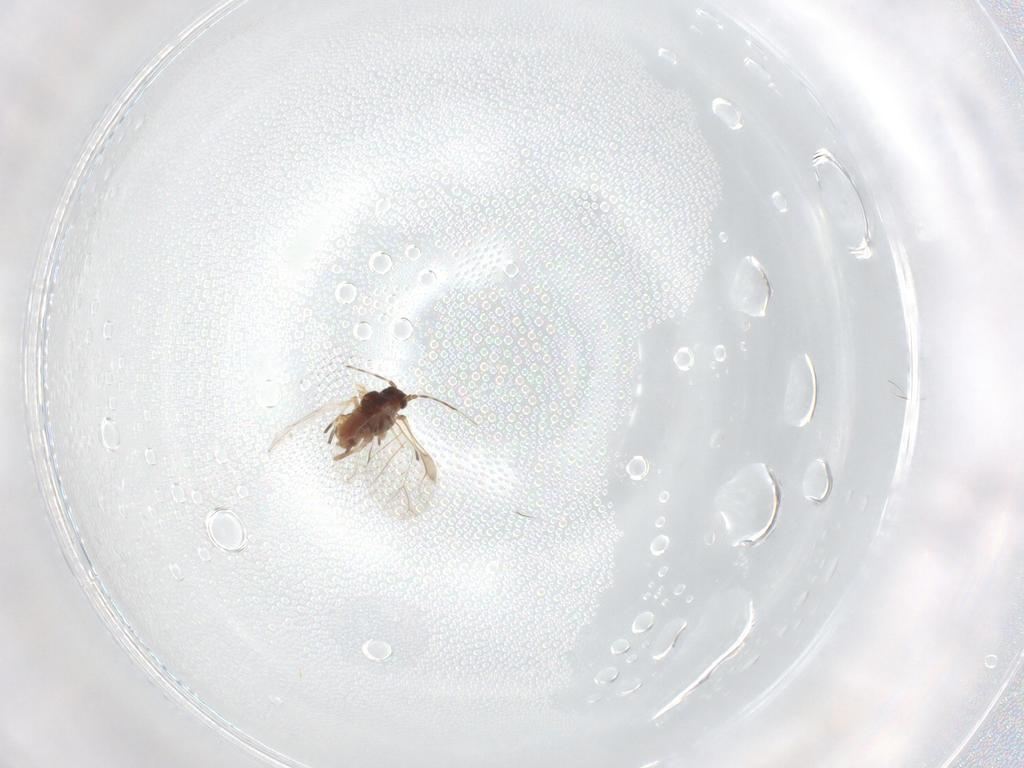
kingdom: Animalia
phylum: Arthropoda
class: Insecta
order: Hemiptera
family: Aphididae
